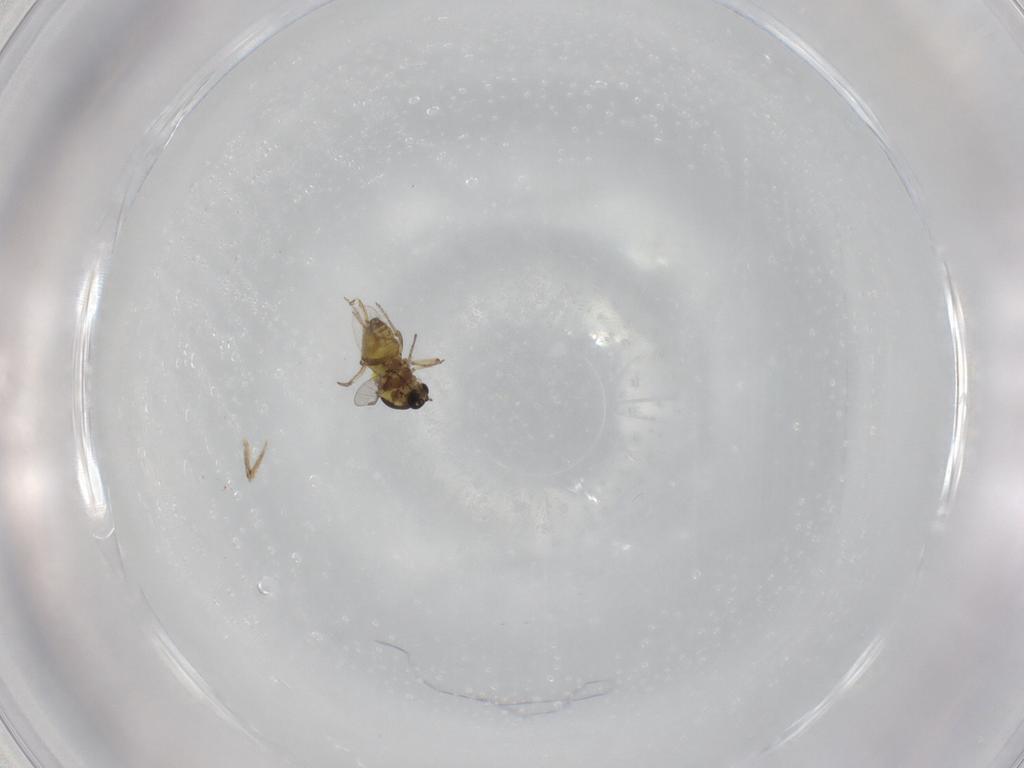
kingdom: Animalia
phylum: Arthropoda
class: Insecta
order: Diptera
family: Ceratopogonidae
